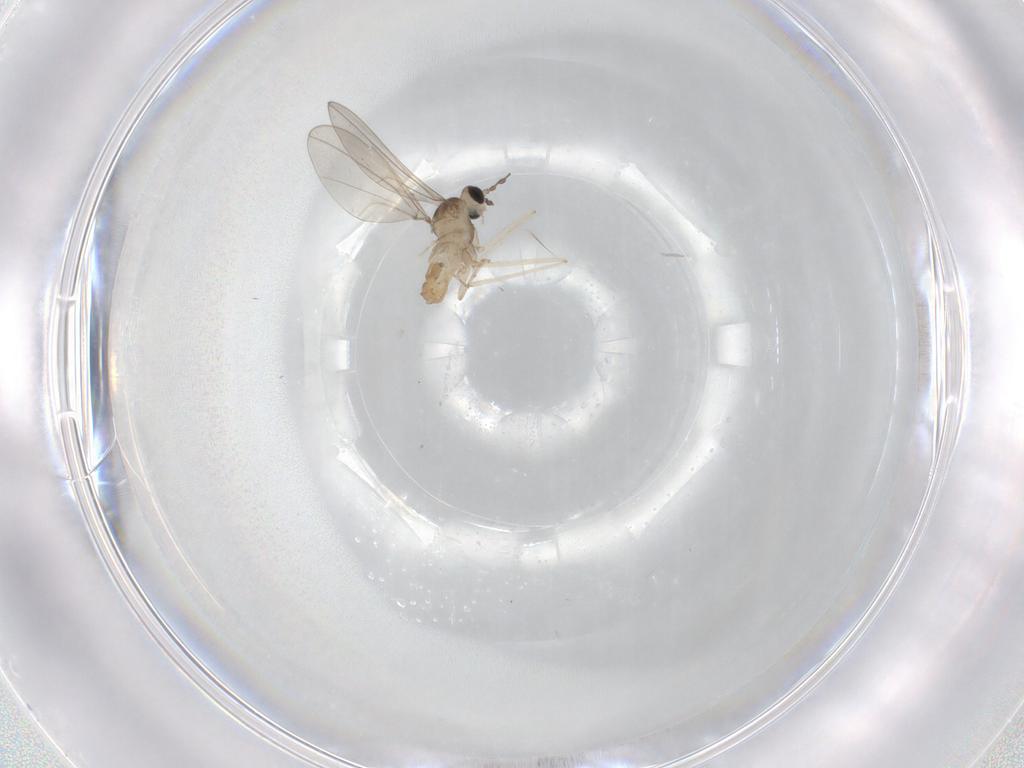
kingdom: Animalia
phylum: Arthropoda
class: Insecta
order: Diptera
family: Cecidomyiidae
